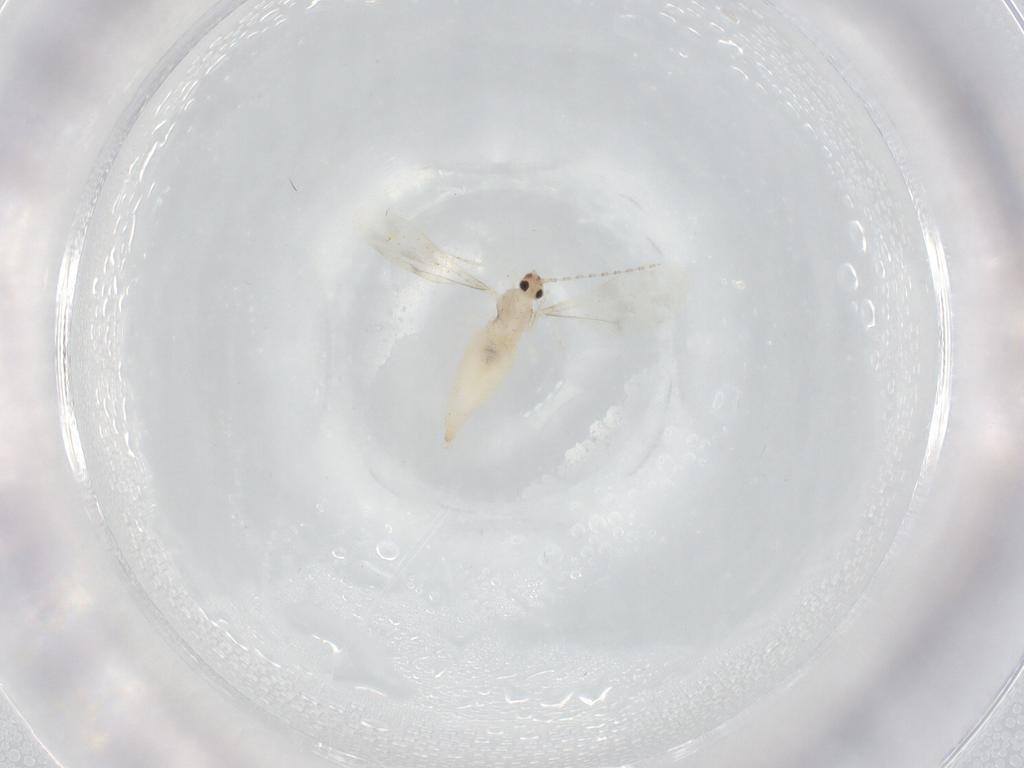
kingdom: Animalia
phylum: Arthropoda
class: Insecta
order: Diptera
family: Cecidomyiidae
